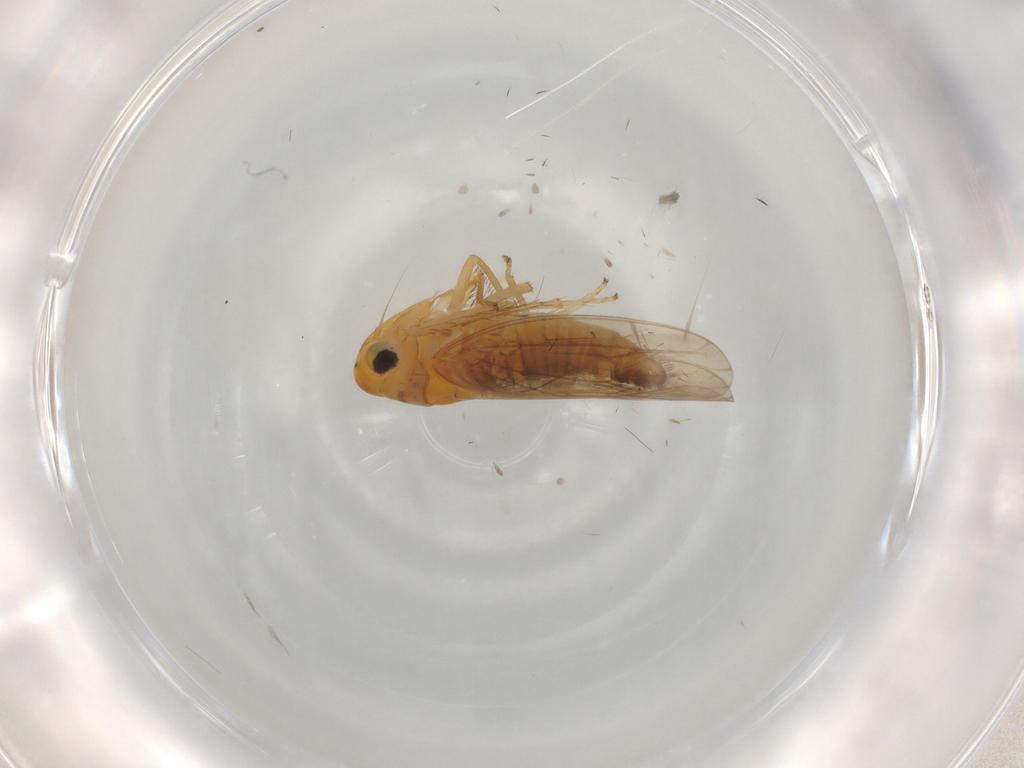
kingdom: Animalia
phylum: Arthropoda
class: Insecta
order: Hemiptera
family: Cicadellidae
